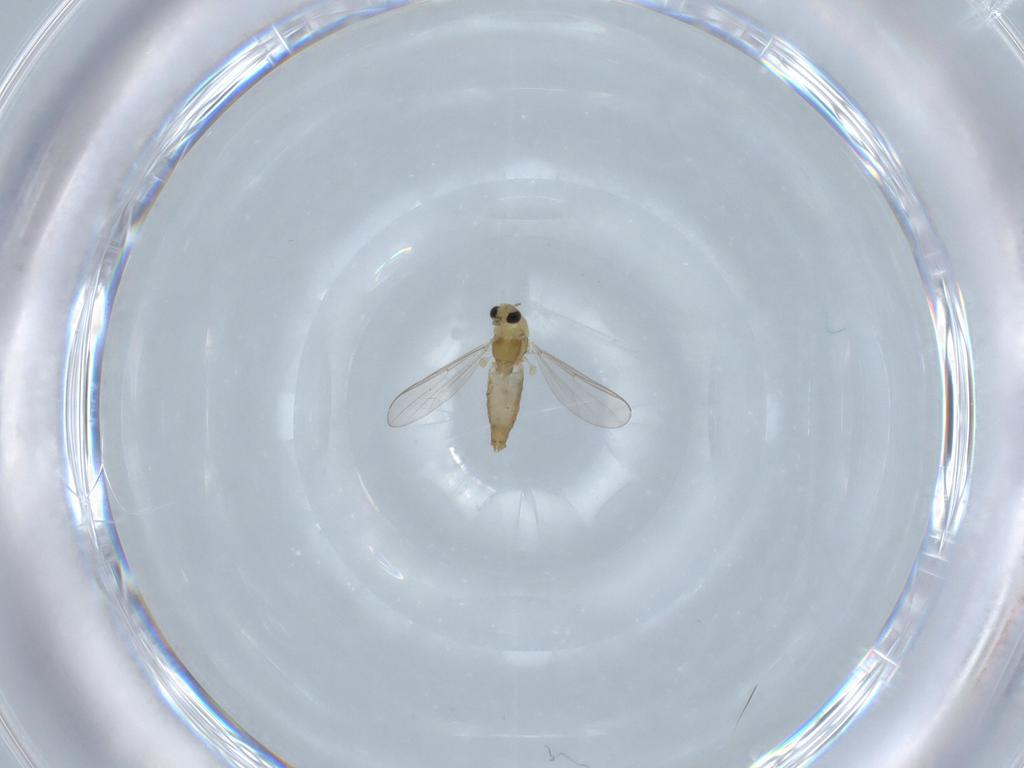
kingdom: Animalia
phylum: Arthropoda
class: Insecta
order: Diptera
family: Chironomidae
